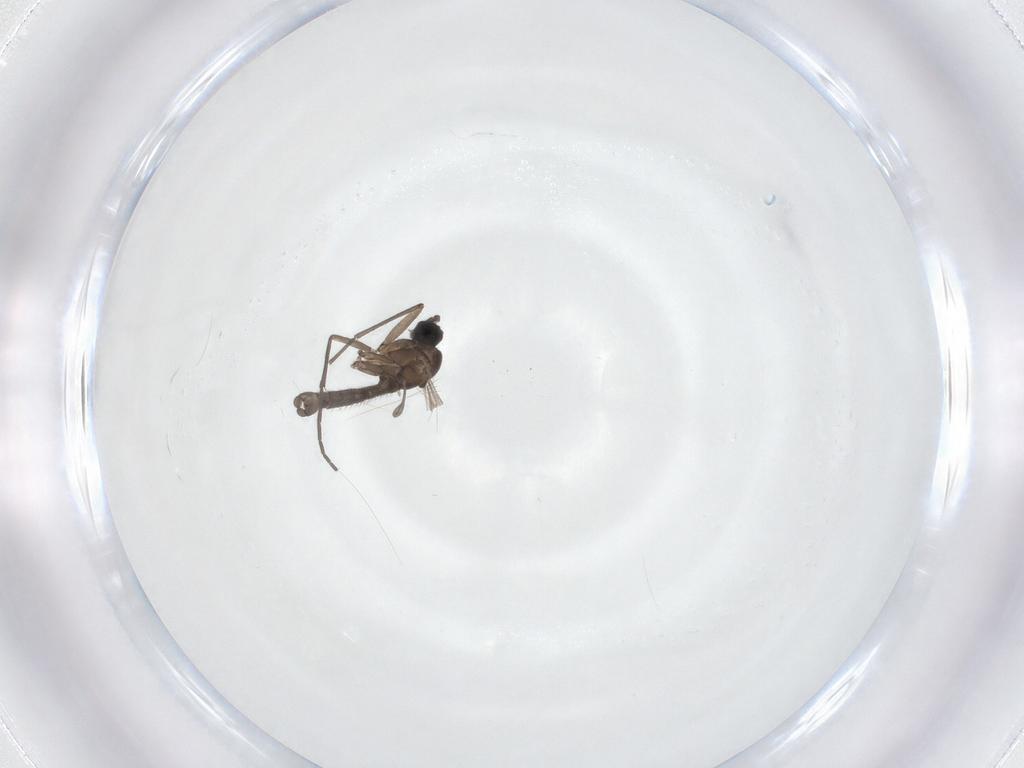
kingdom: Animalia
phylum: Arthropoda
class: Insecta
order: Diptera
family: Sciaridae
